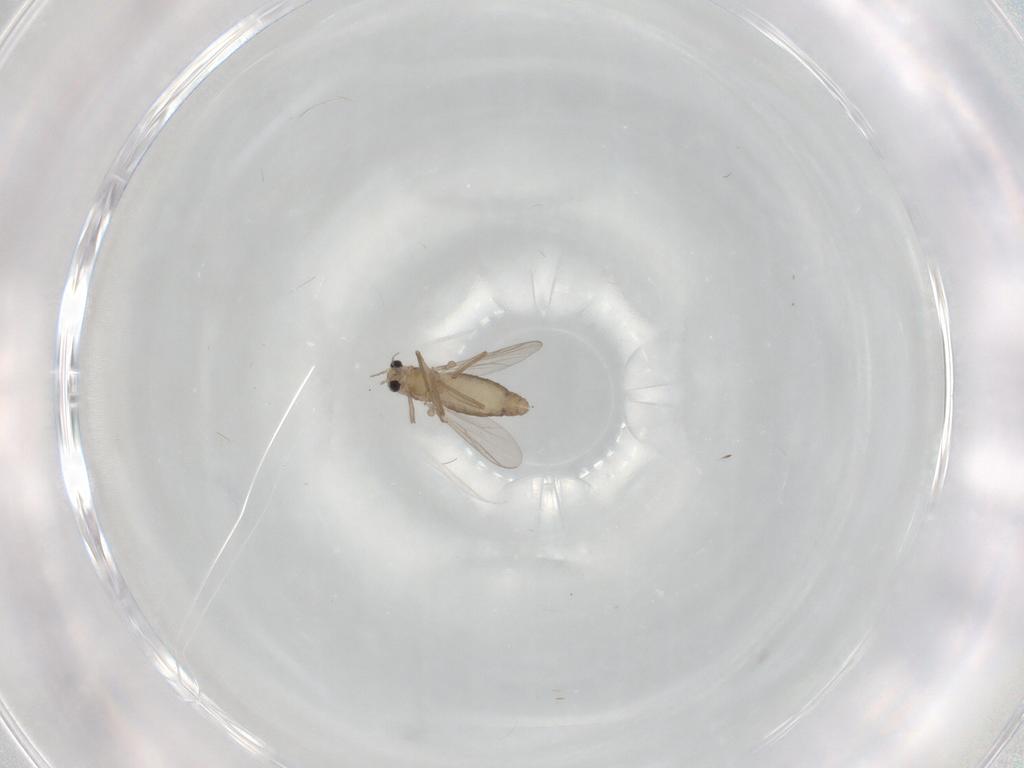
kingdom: Animalia
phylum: Arthropoda
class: Insecta
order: Diptera
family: Chironomidae
